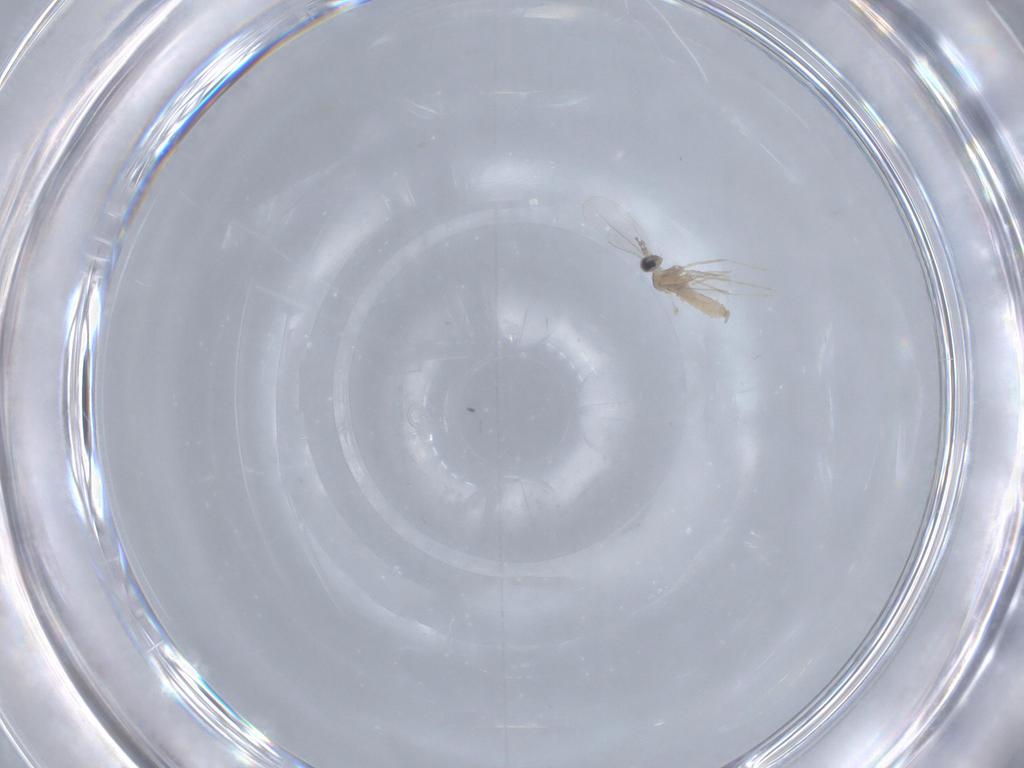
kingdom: Animalia
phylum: Arthropoda
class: Insecta
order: Diptera
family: Cecidomyiidae
